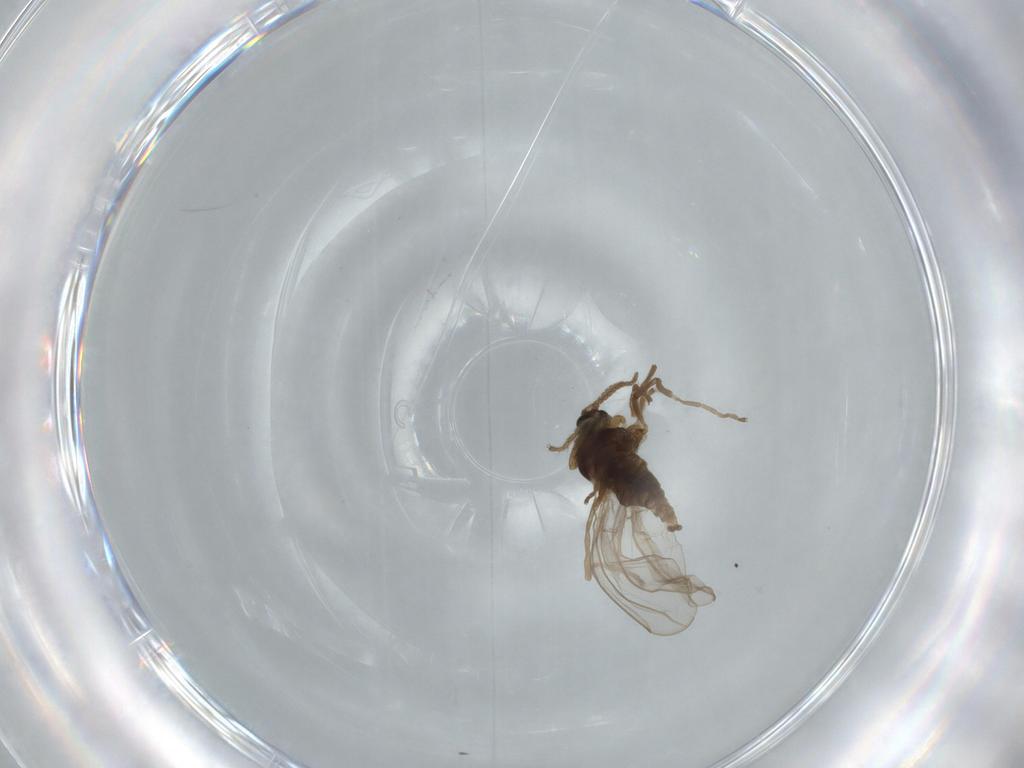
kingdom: Animalia
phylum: Arthropoda
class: Insecta
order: Diptera
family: Cecidomyiidae
